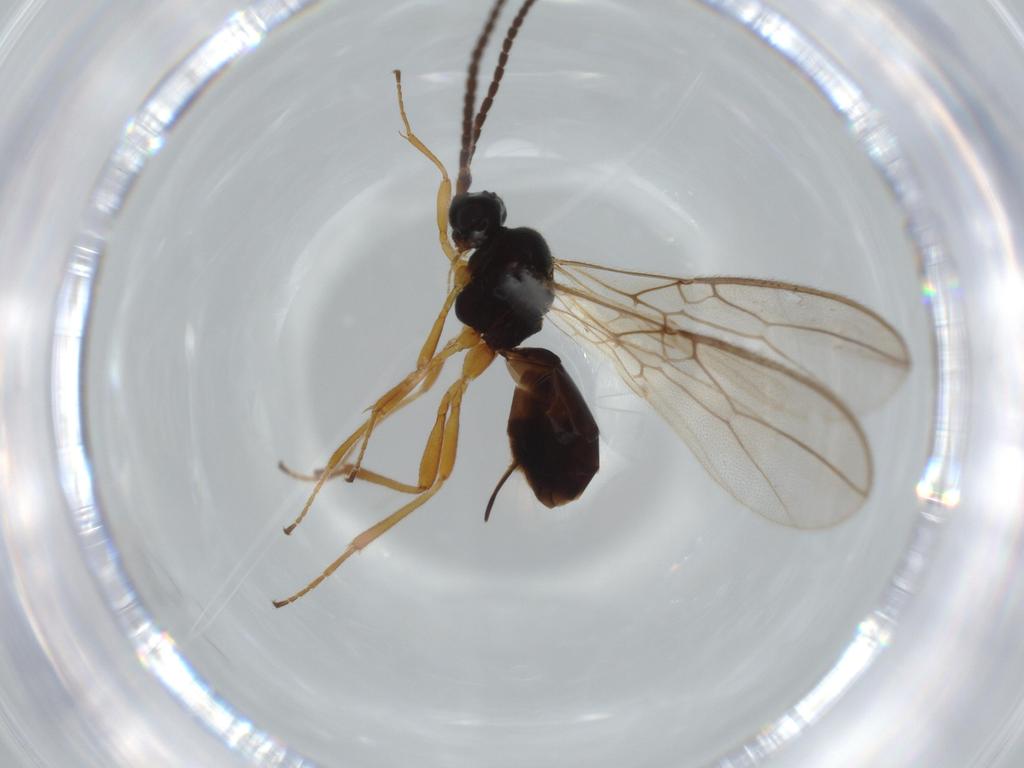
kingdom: Animalia
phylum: Arthropoda
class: Insecta
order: Hymenoptera
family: Braconidae
